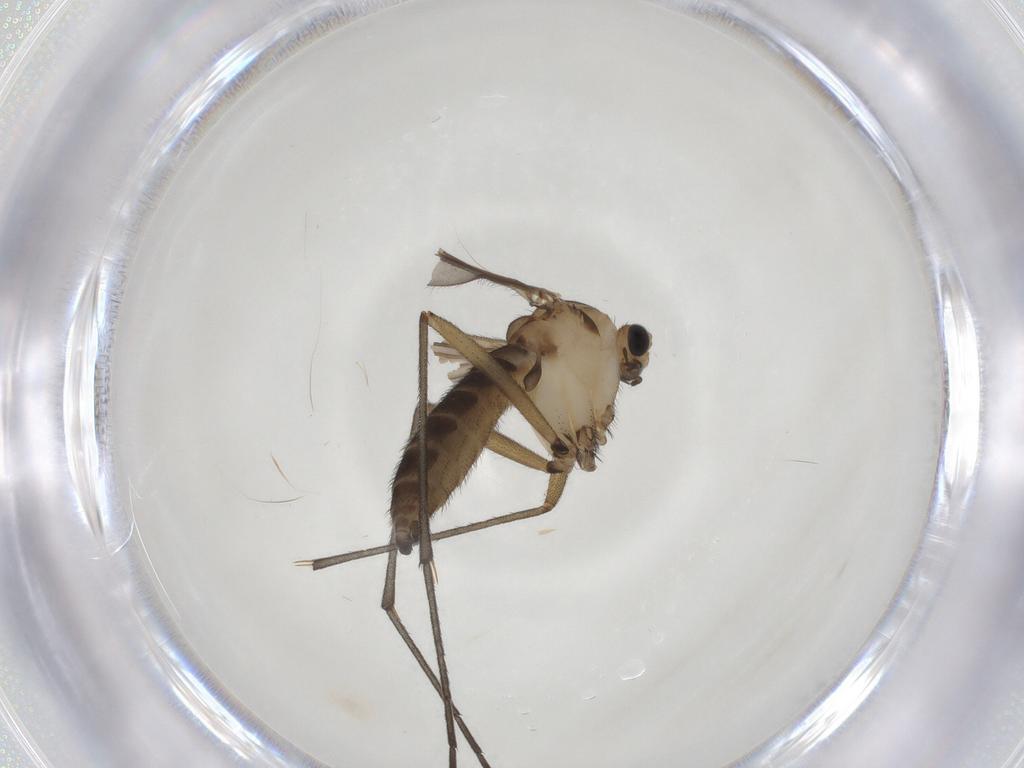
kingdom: Animalia
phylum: Arthropoda
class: Insecta
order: Diptera
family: Sciaridae
